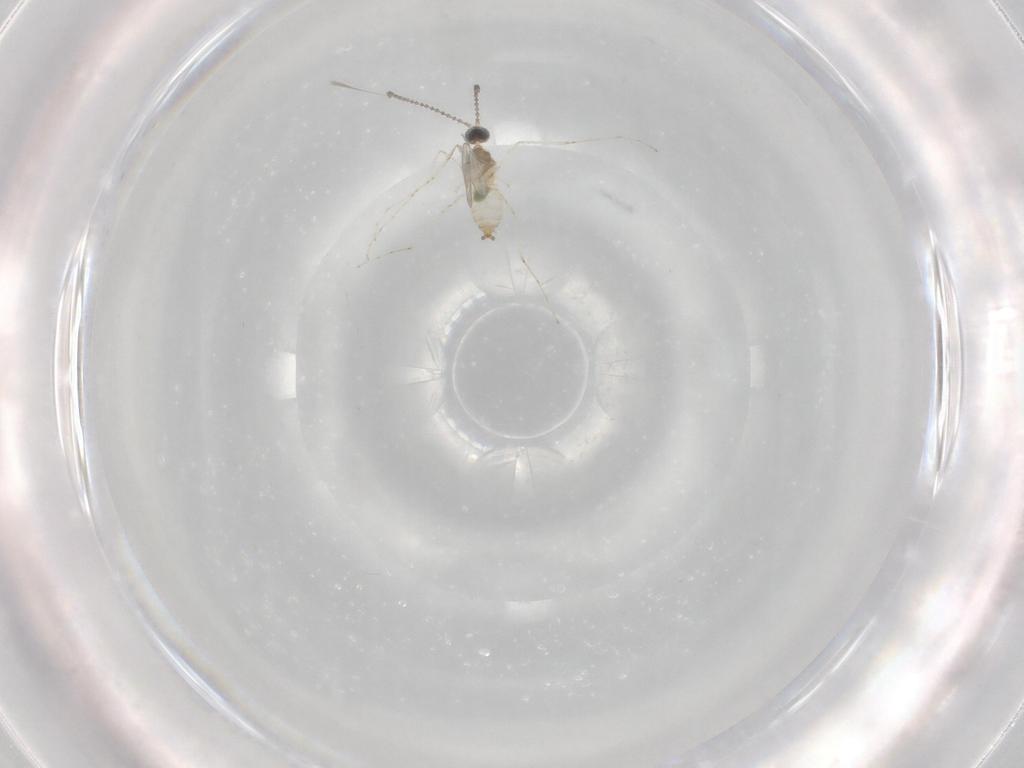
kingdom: Animalia
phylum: Arthropoda
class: Insecta
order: Diptera
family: Cecidomyiidae
